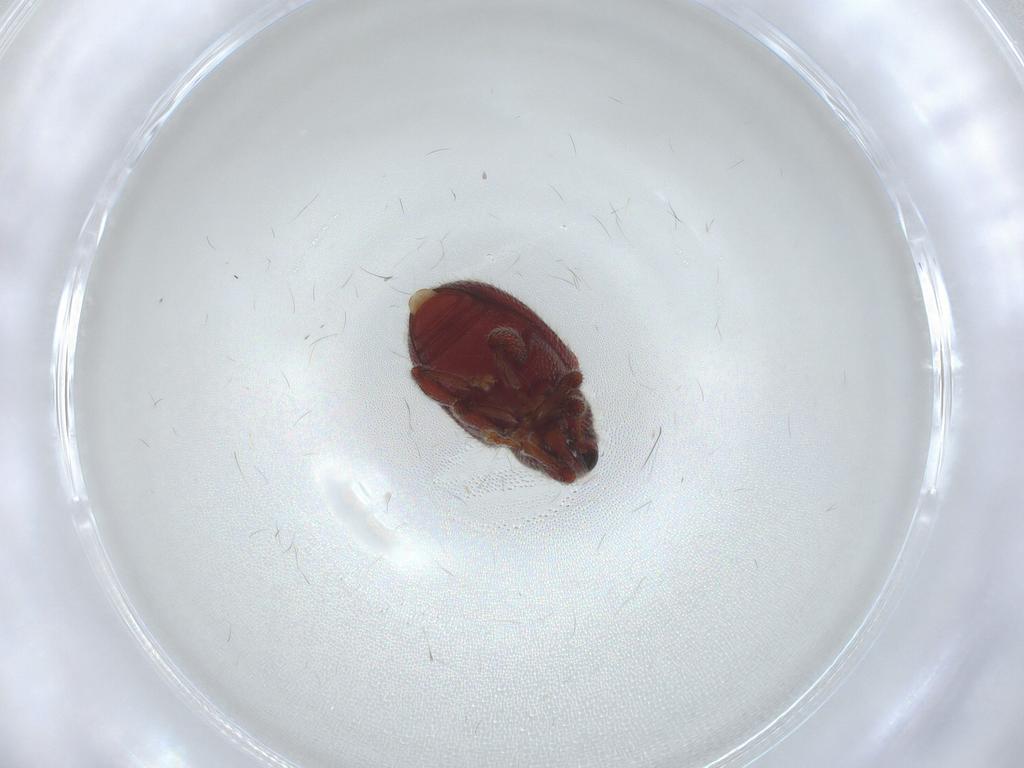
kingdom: Animalia
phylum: Arthropoda
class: Insecta
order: Coleoptera
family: Curculionidae
